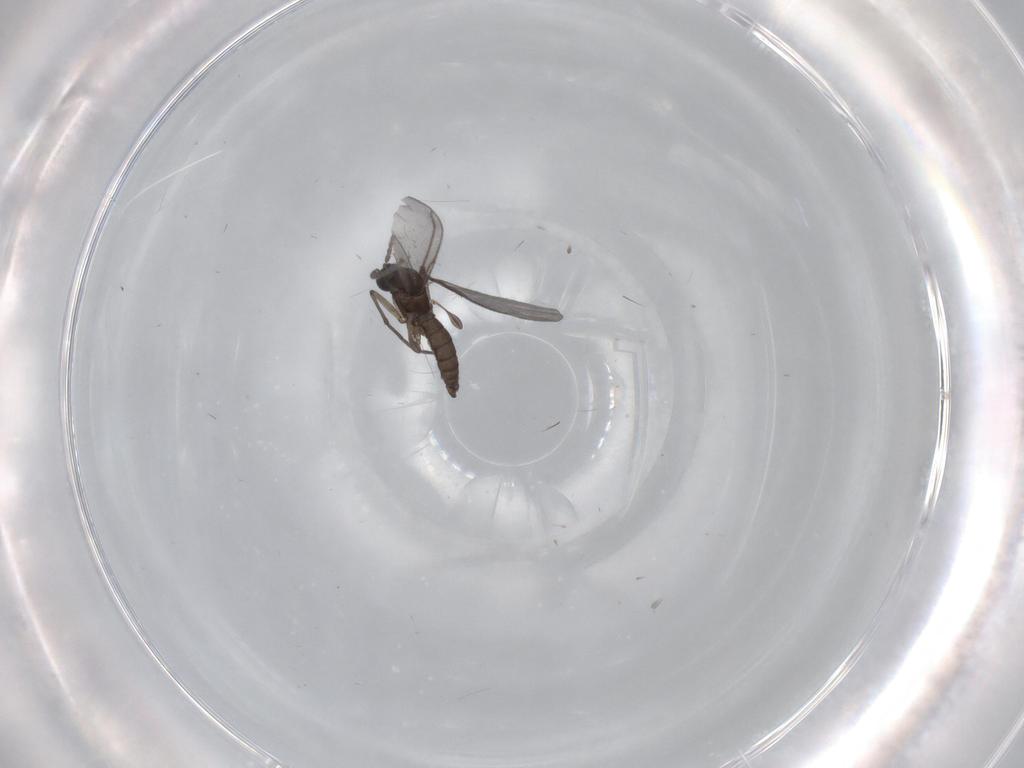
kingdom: Animalia
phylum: Arthropoda
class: Insecta
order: Diptera
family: Sciaridae
